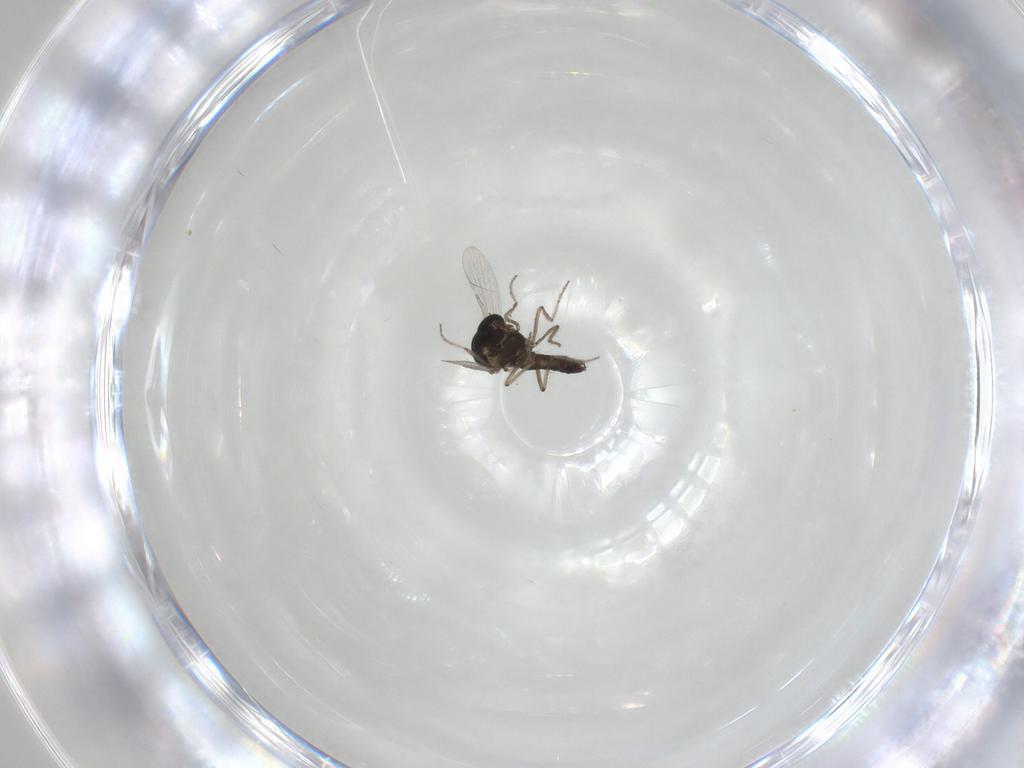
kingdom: Animalia
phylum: Arthropoda
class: Insecta
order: Diptera
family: Ceratopogonidae
